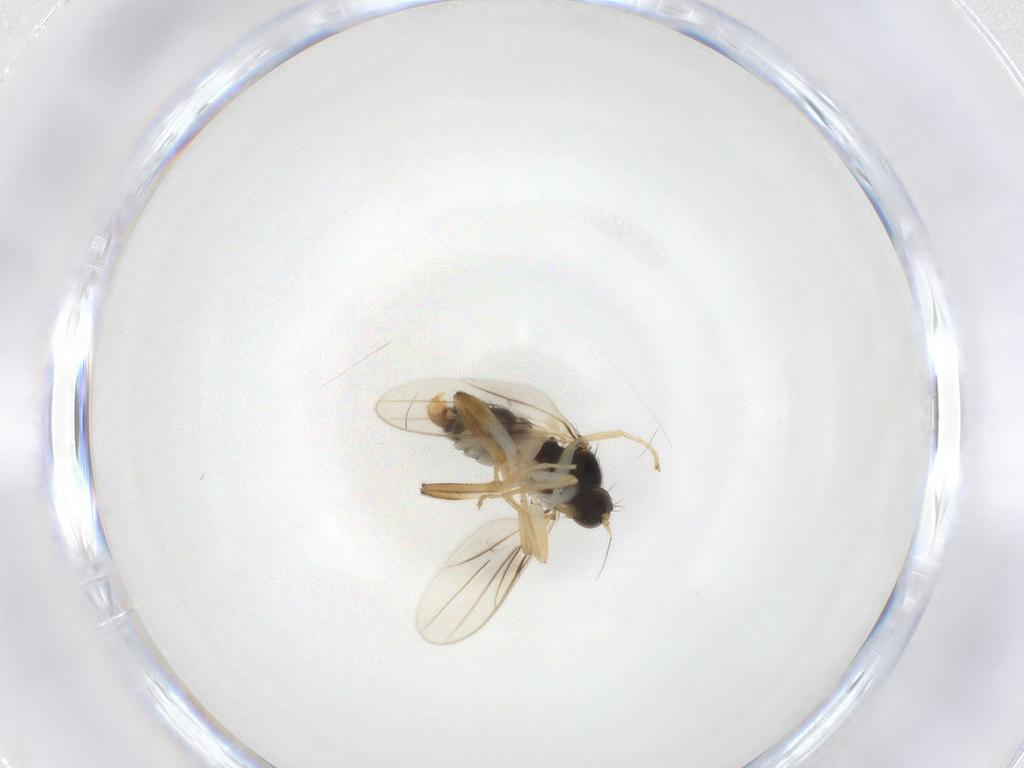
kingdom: Animalia
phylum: Arthropoda
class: Insecta
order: Diptera
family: Hybotidae
